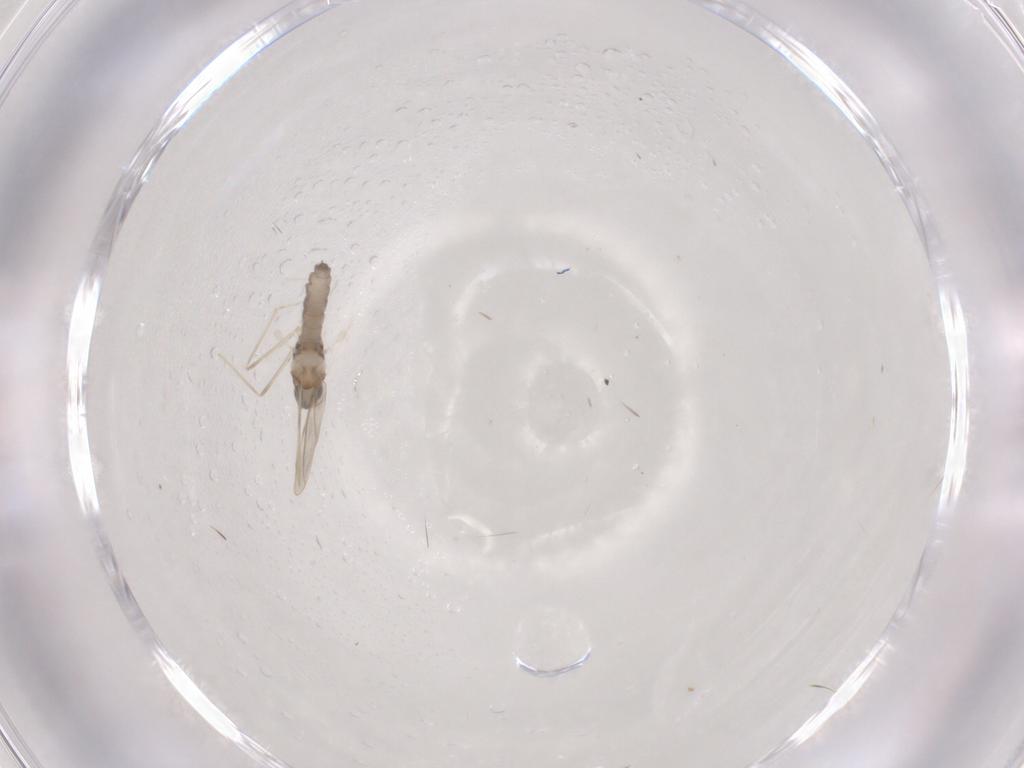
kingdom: Animalia
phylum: Arthropoda
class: Insecta
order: Diptera
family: Cecidomyiidae
